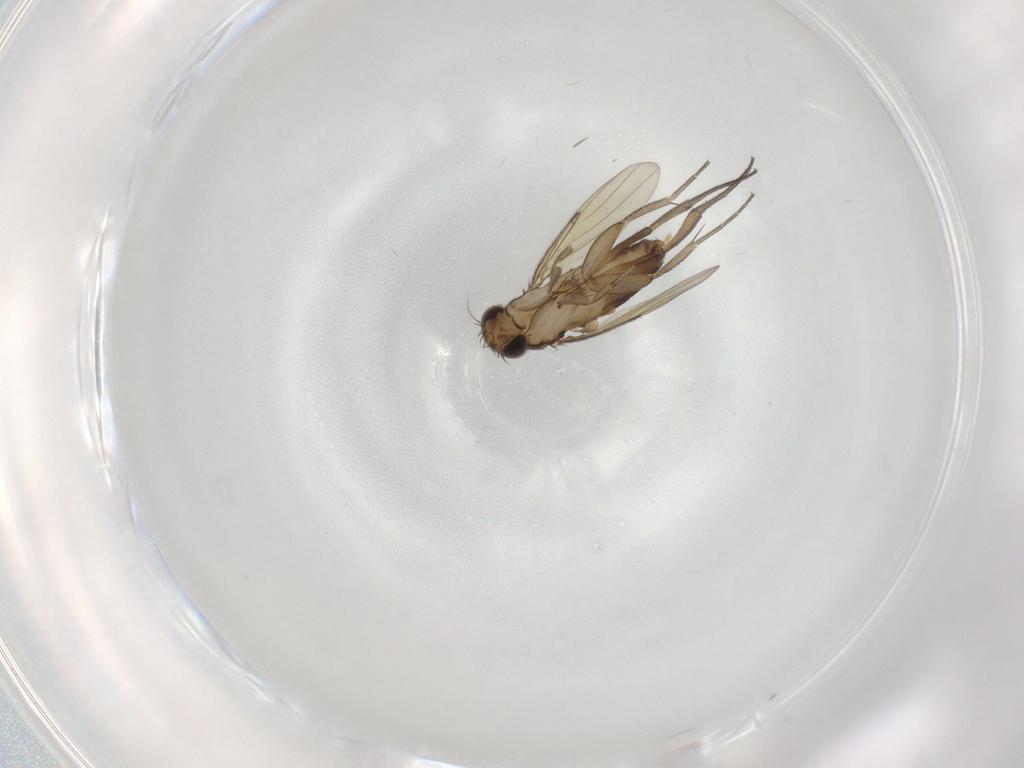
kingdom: Animalia
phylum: Arthropoda
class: Insecta
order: Diptera
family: Phoridae
